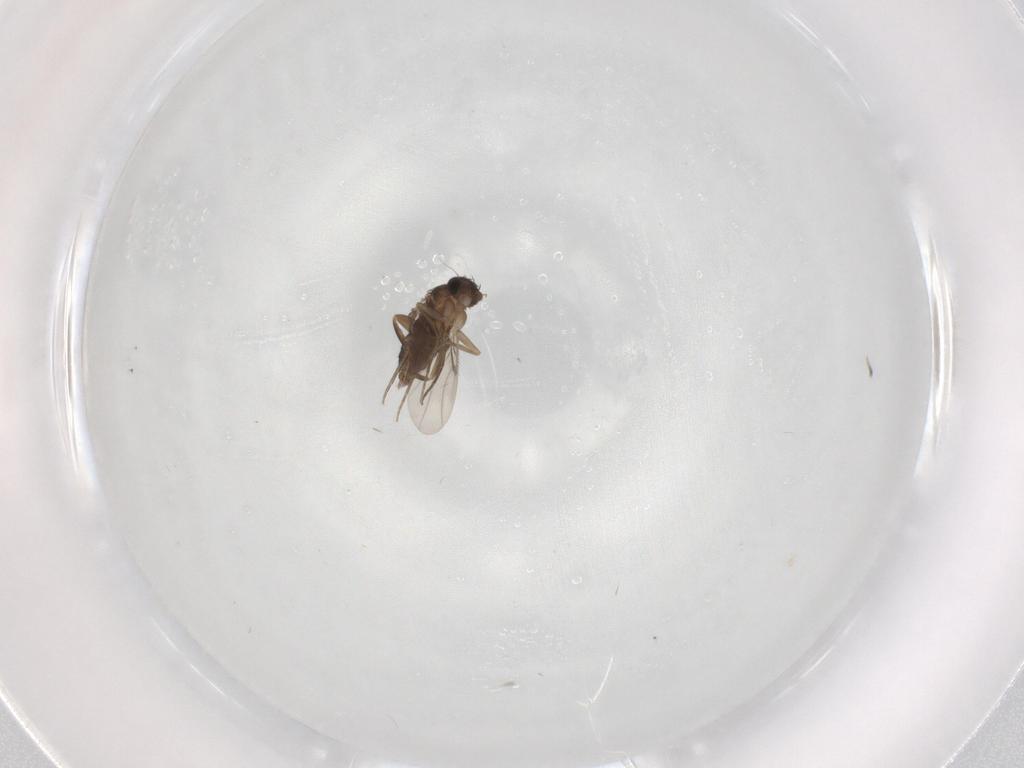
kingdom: Animalia
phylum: Arthropoda
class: Insecta
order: Diptera
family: Phoridae
